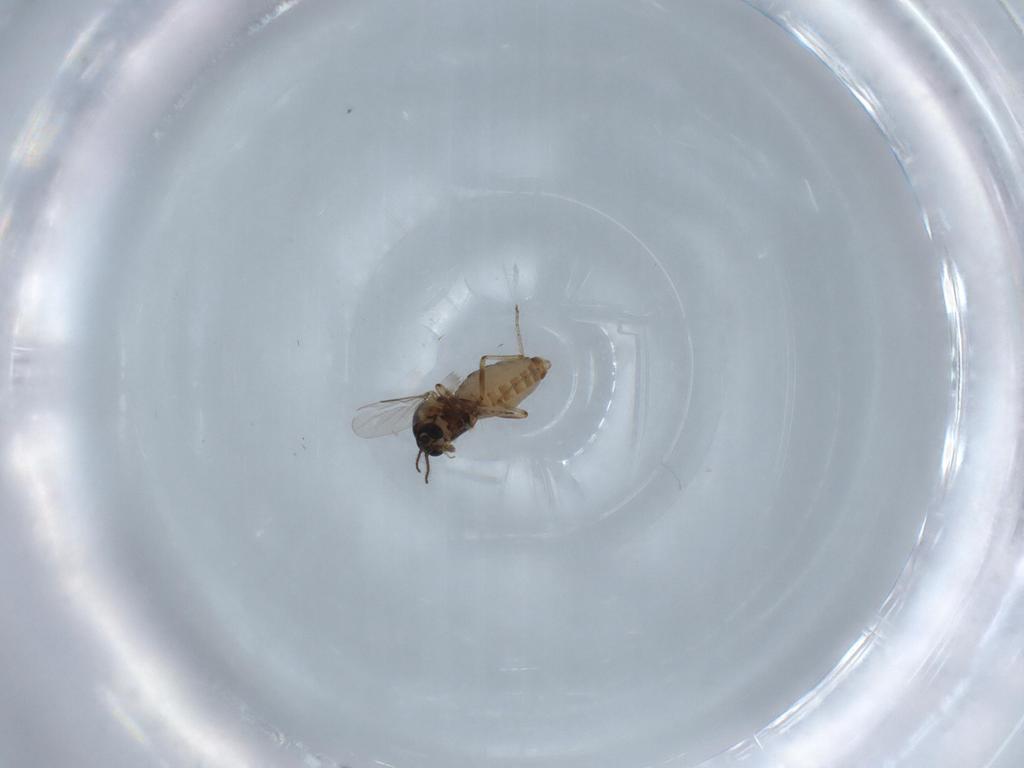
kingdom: Animalia
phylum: Arthropoda
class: Insecta
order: Diptera
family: Ceratopogonidae
